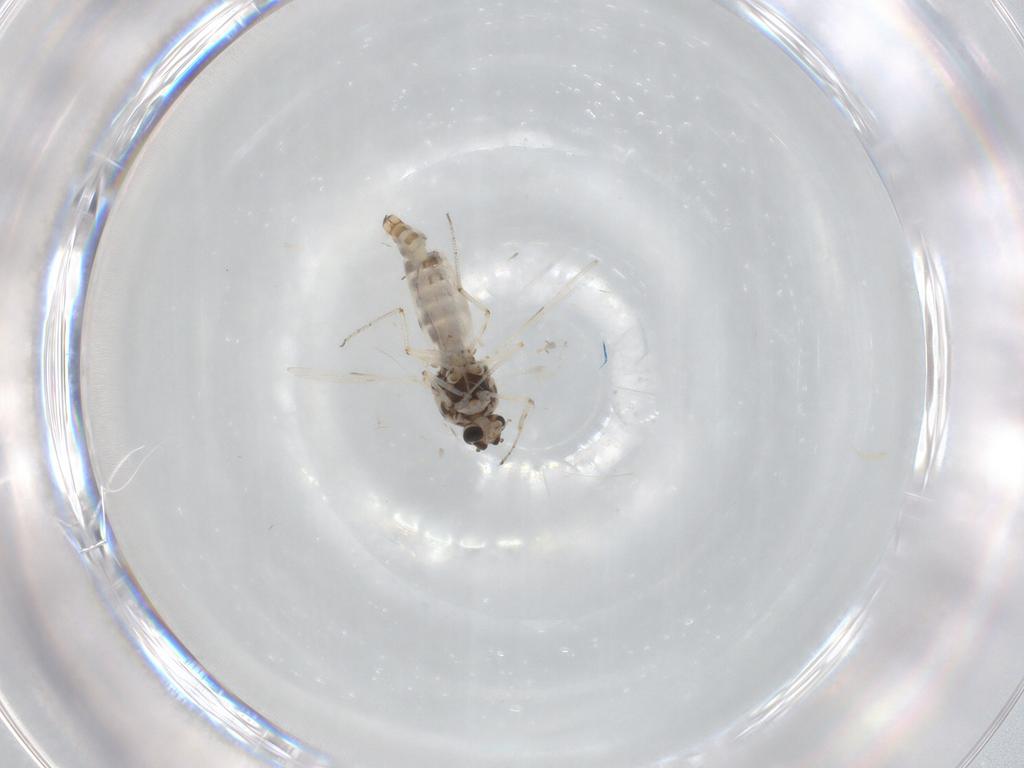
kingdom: Animalia
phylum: Arthropoda
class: Insecta
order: Diptera
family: Ceratopogonidae
